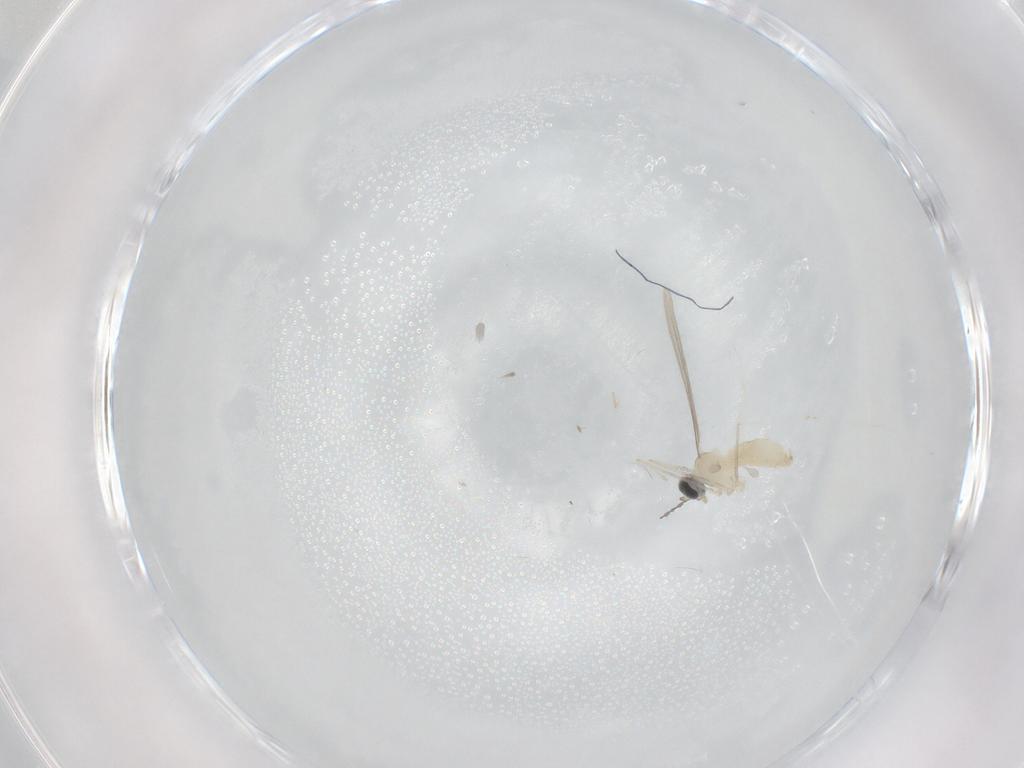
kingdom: Animalia
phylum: Arthropoda
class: Insecta
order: Diptera
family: Cecidomyiidae
